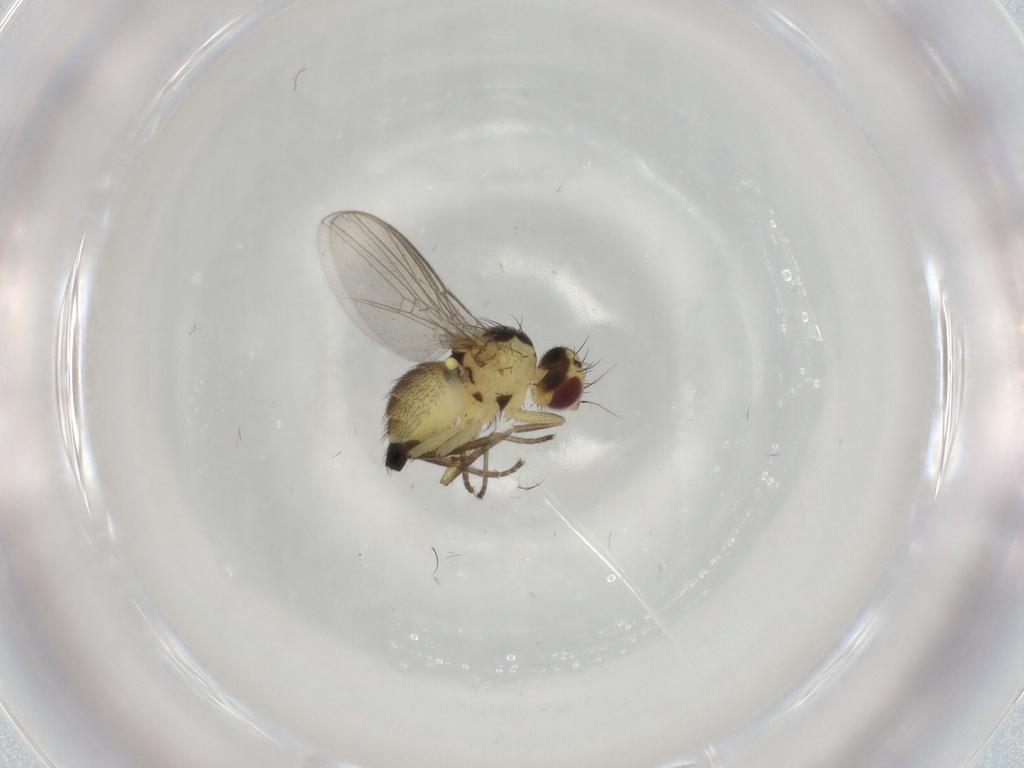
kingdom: Animalia
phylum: Arthropoda
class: Insecta
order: Diptera
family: Agromyzidae
